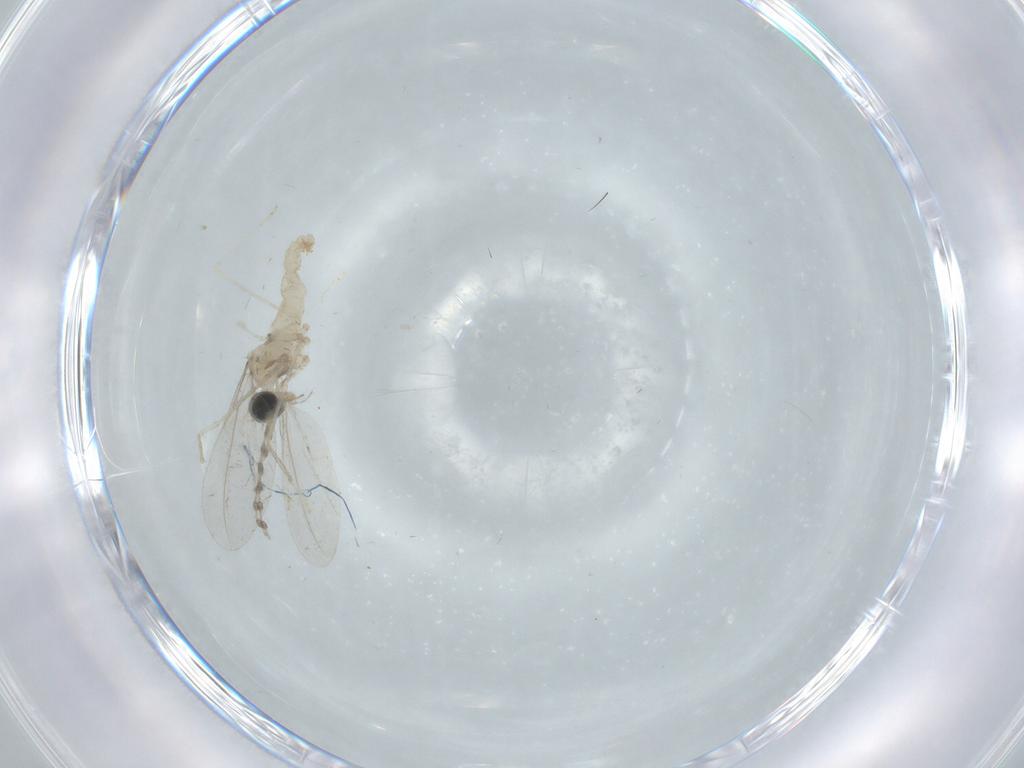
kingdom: Animalia
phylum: Arthropoda
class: Insecta
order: Diptera
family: Cecidomyiidae
